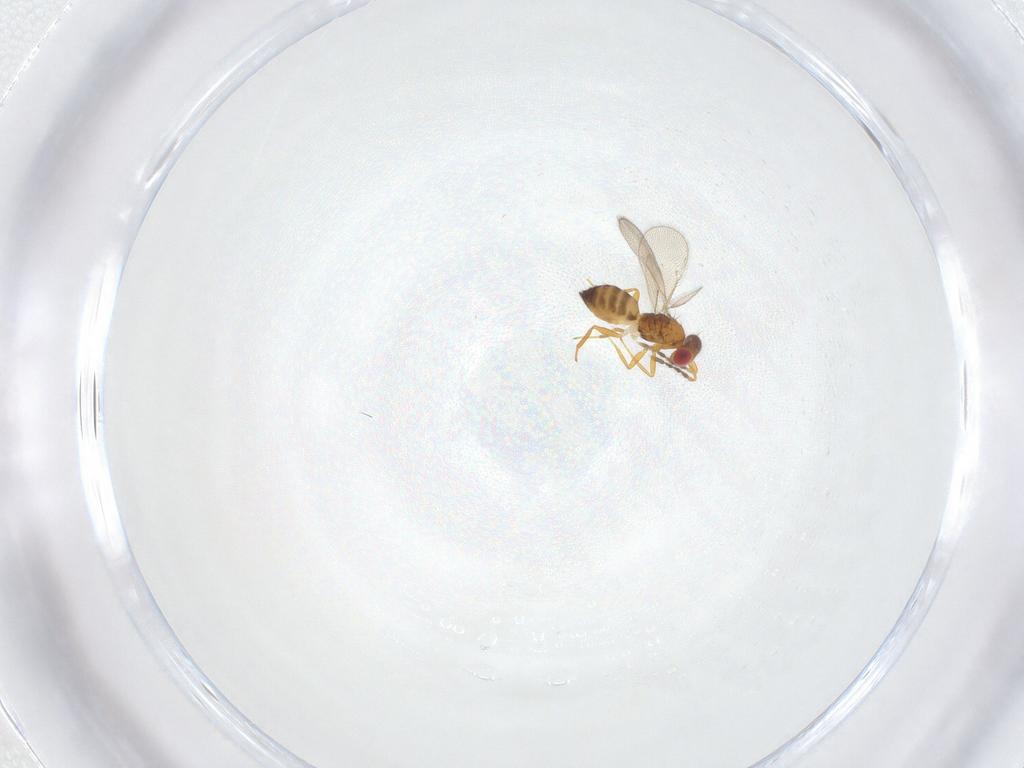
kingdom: Animalia
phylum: Arthropoda
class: Insecta
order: Hymenoptera
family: Eulophidae
